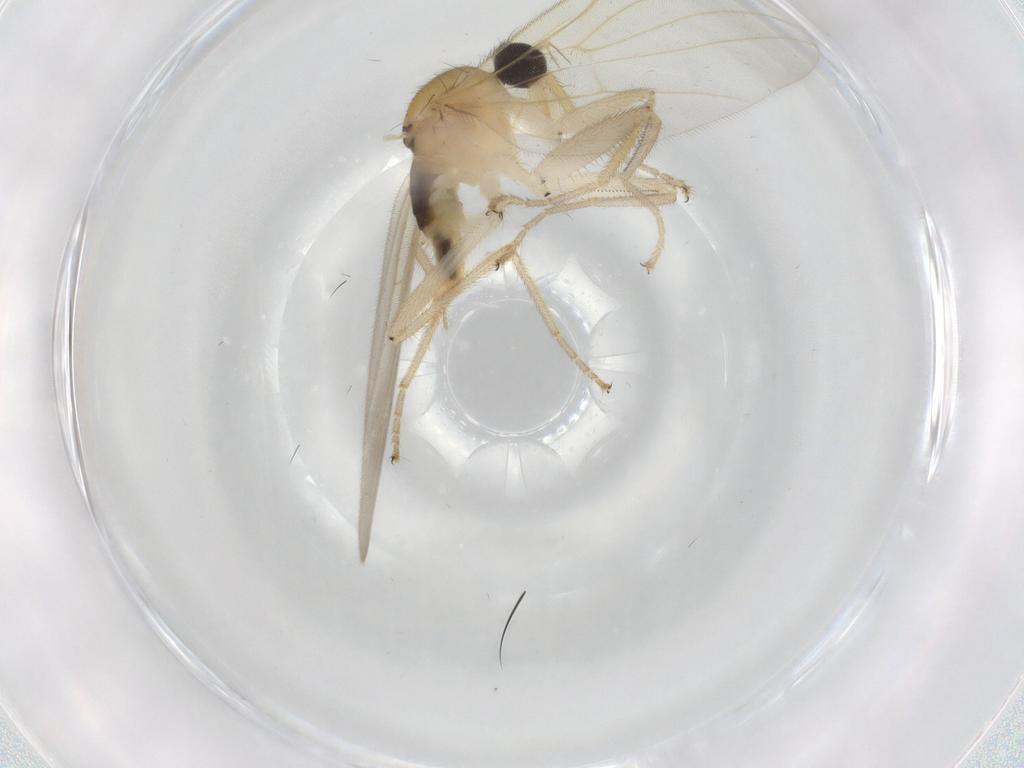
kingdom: Animalia
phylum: Arthropoda
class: Insecta
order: Diptera
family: Hybotidae
